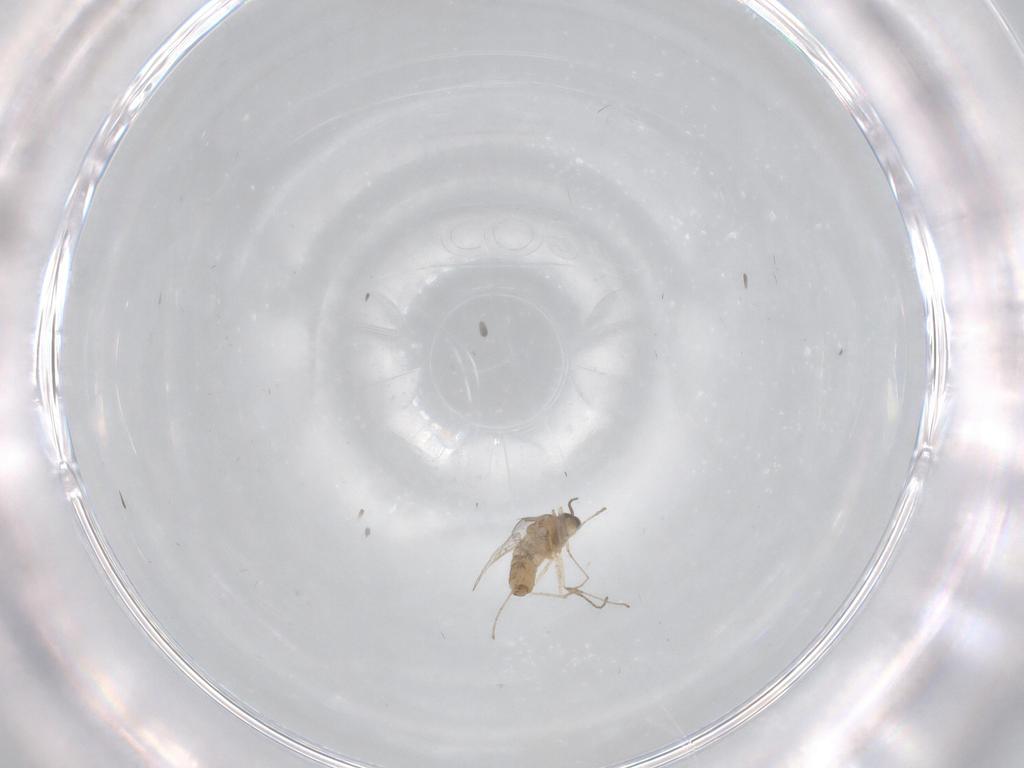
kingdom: Animalia
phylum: Arthropoda
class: Insecta
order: Diptera
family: Cecidomyiidae
